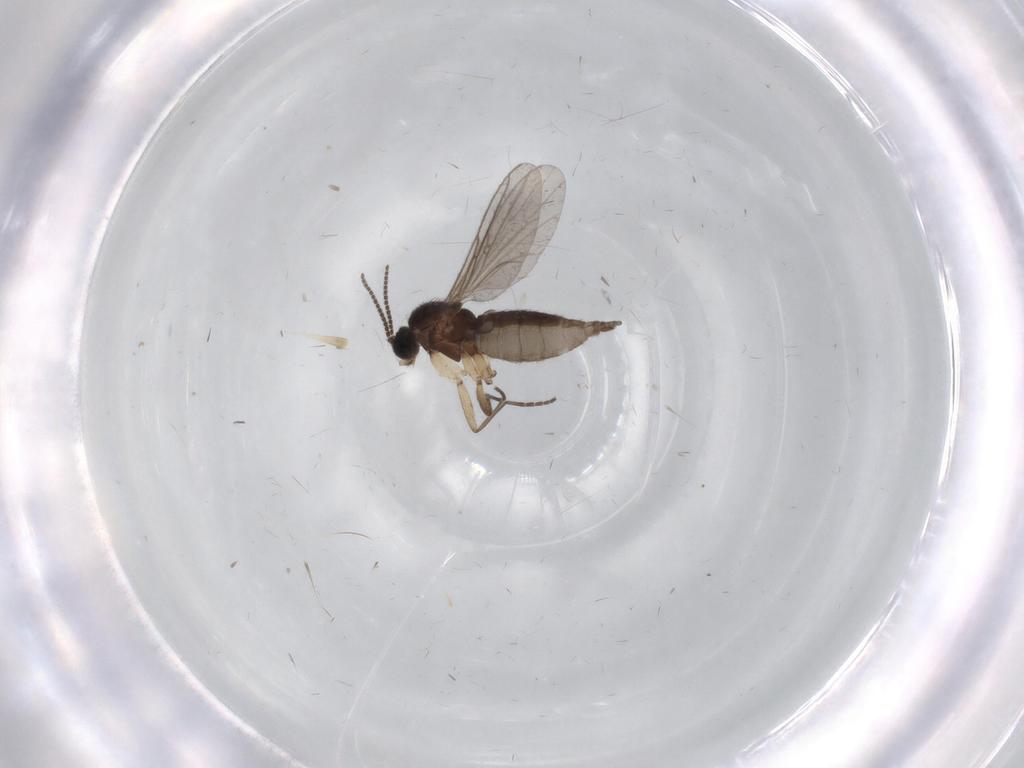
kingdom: Animalia
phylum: Arthropoda
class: Insecta
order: Diptera
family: Sciaridae
